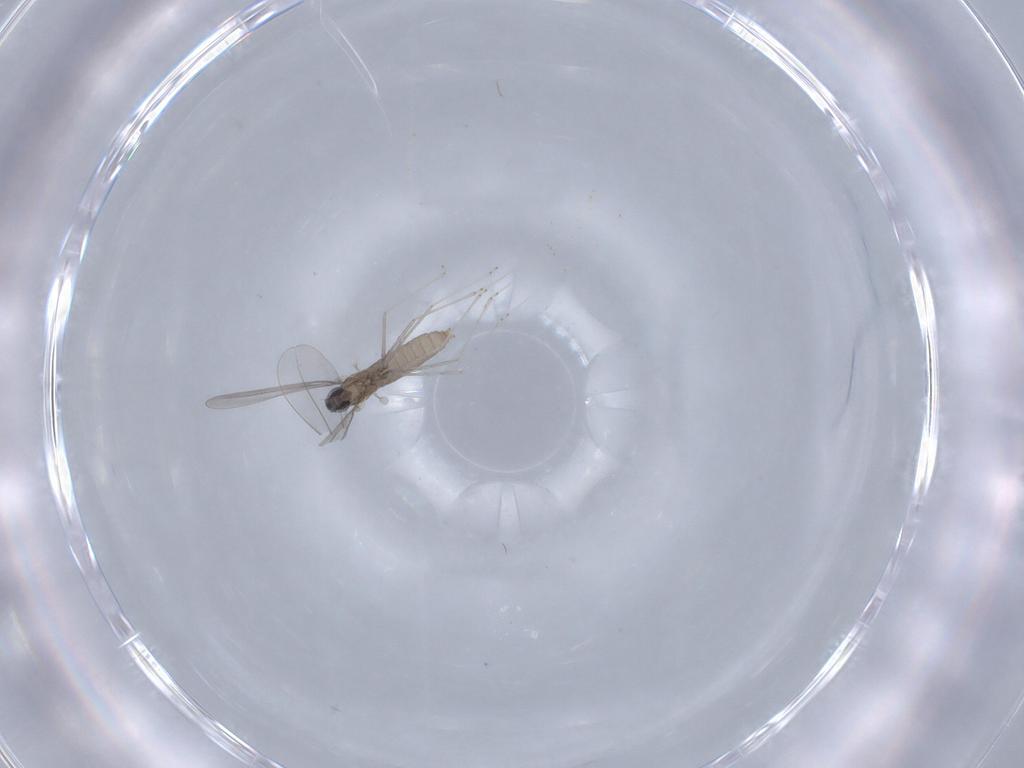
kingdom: Animalia
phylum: Arthropoda
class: Insecta
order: Diptera
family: Cecidomyiidae
